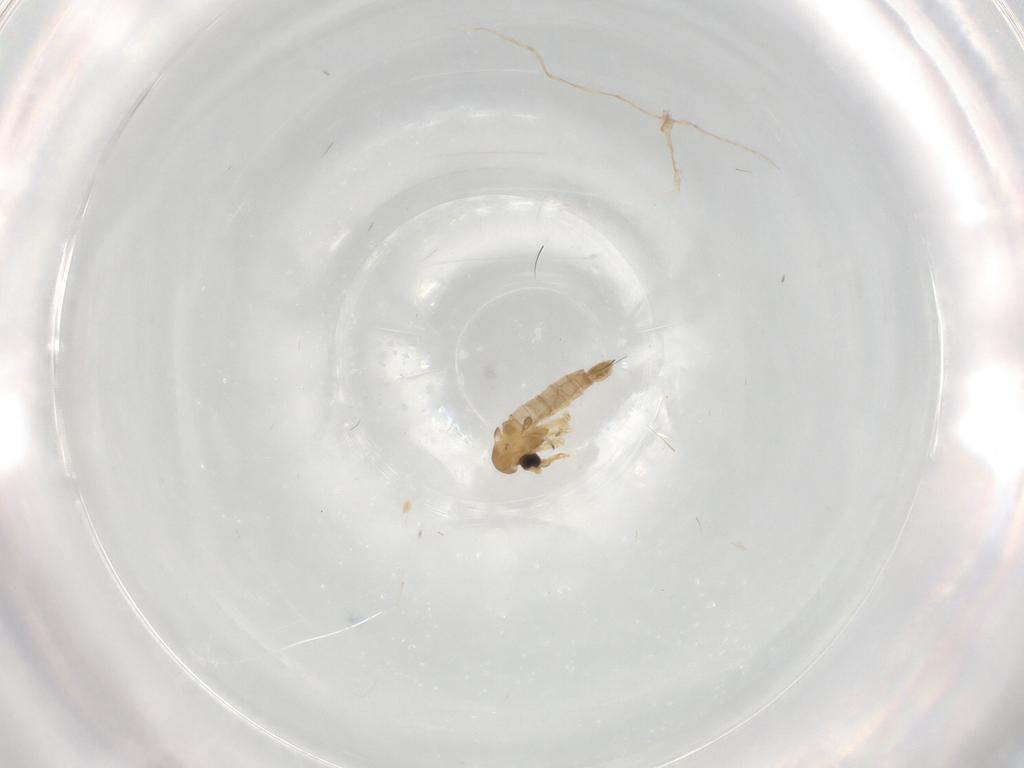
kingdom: Animalia
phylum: Arthropoda
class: Insecta
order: Diptera
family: Psychodidae
